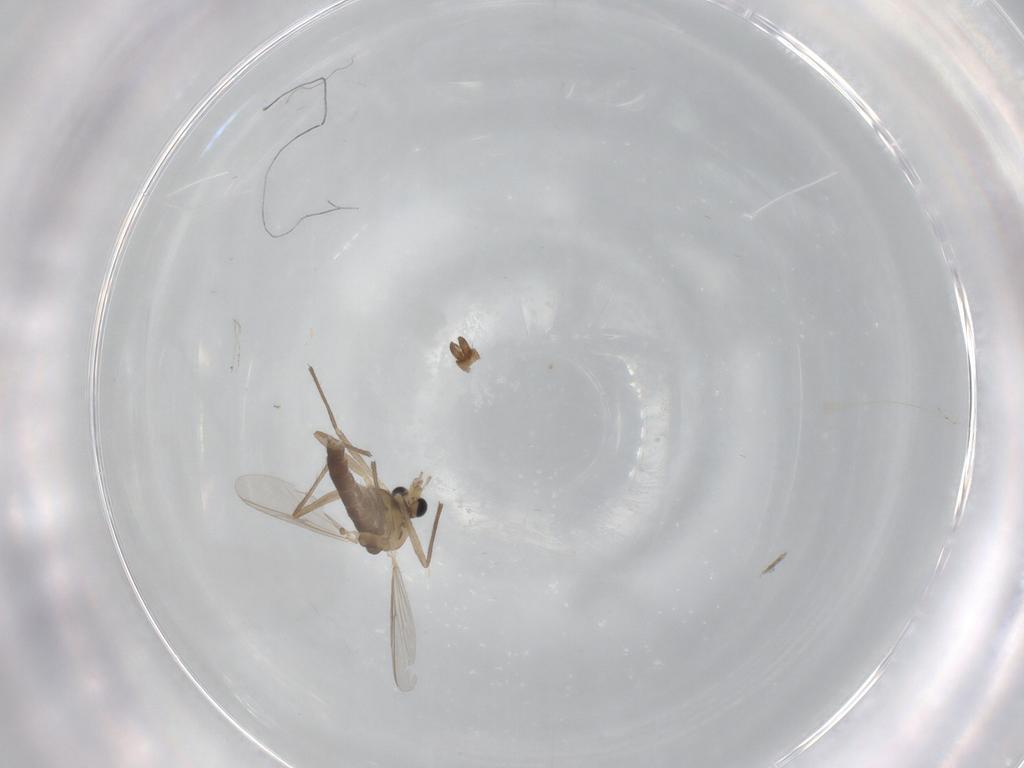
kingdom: Animalia
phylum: Arthropoda
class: Insecta
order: Diptera
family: Chironomidae
